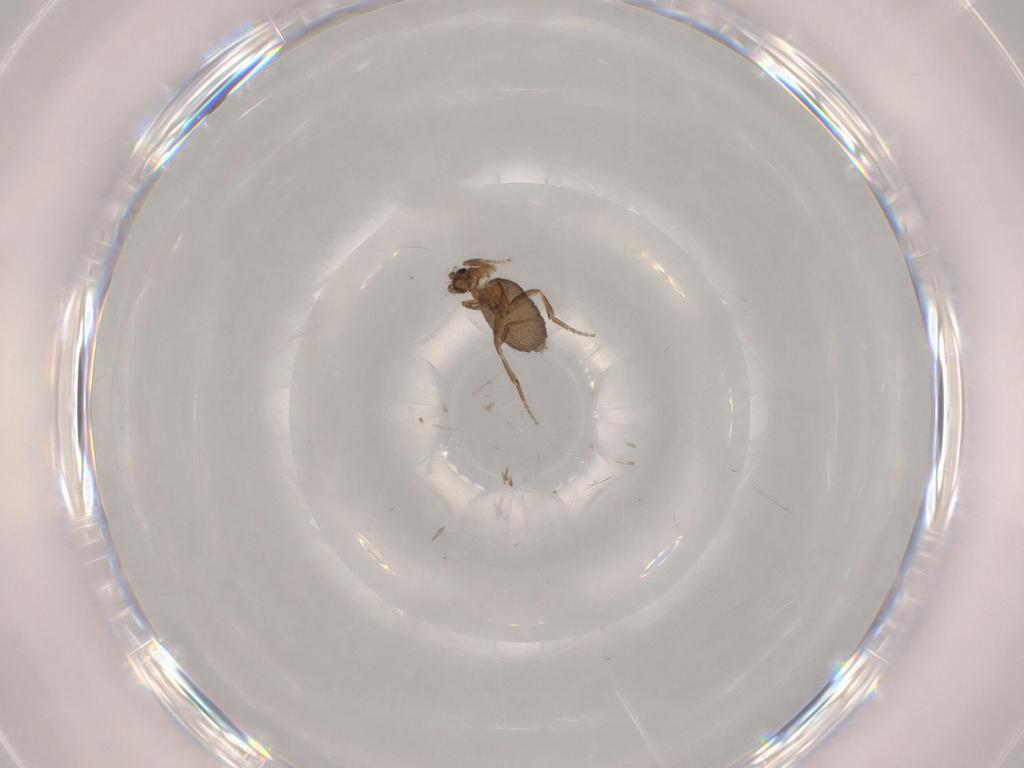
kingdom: Animalia
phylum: Arthropoda
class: Insecta
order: Diptera
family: Phoridae
